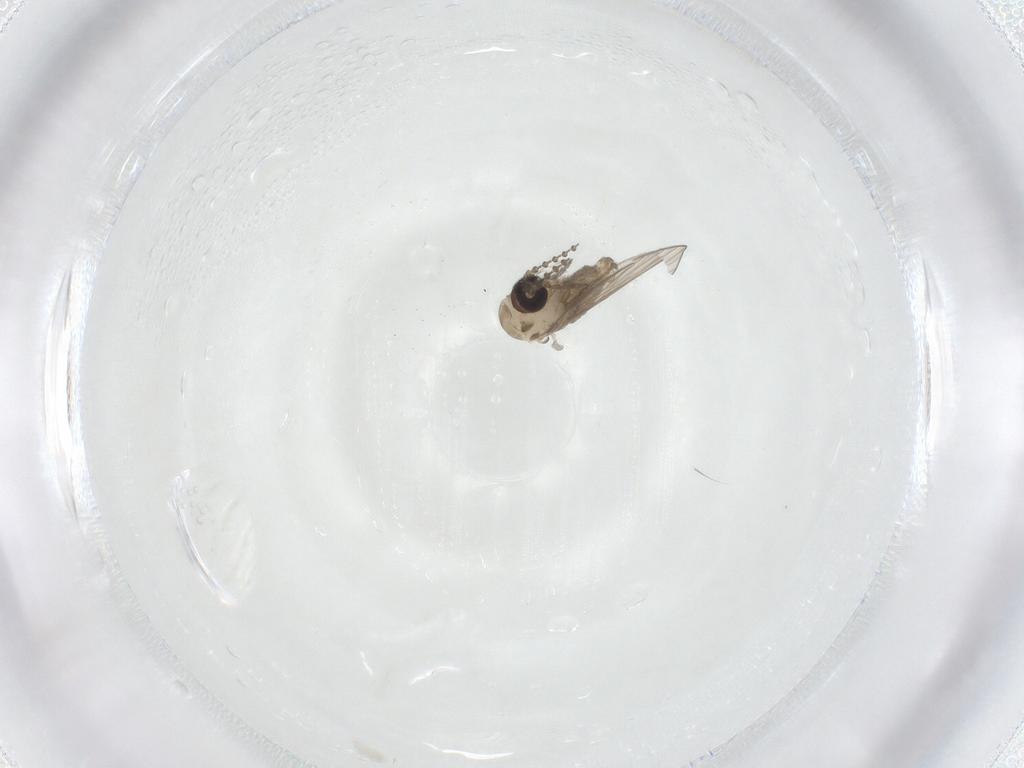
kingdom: Animalia
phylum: Arthropoda
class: Insecta
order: Diptera
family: Psychodidae
